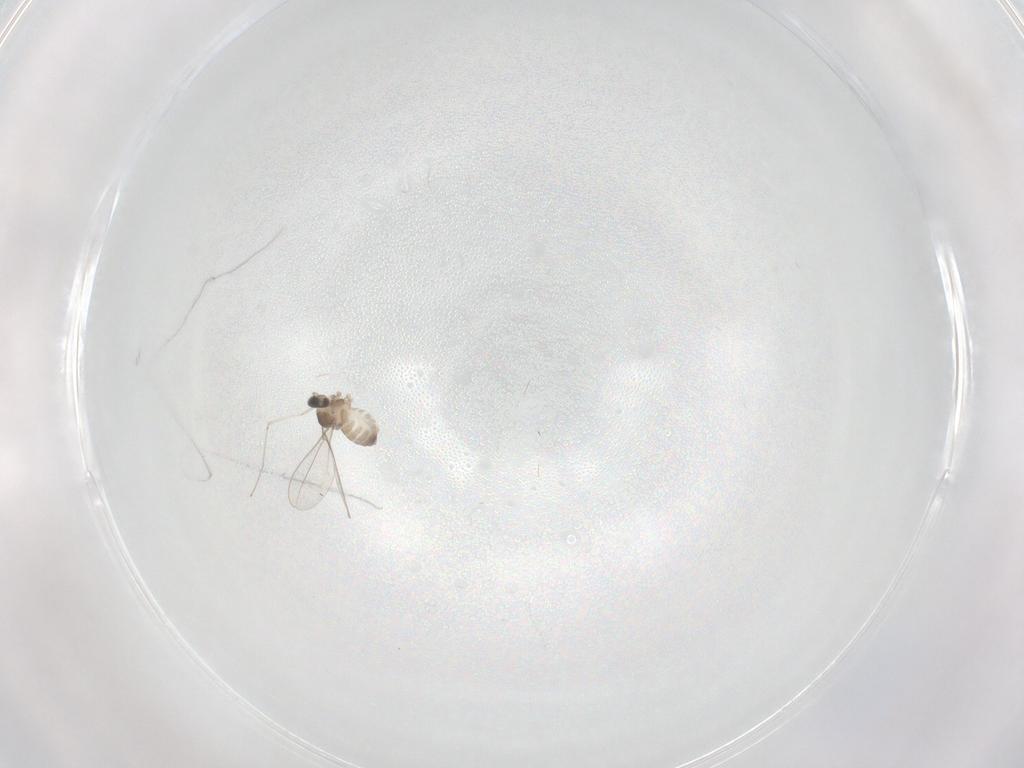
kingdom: Animalia
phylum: Arthropoda
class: Insecta
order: Diptera
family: Cecidomyiidae
